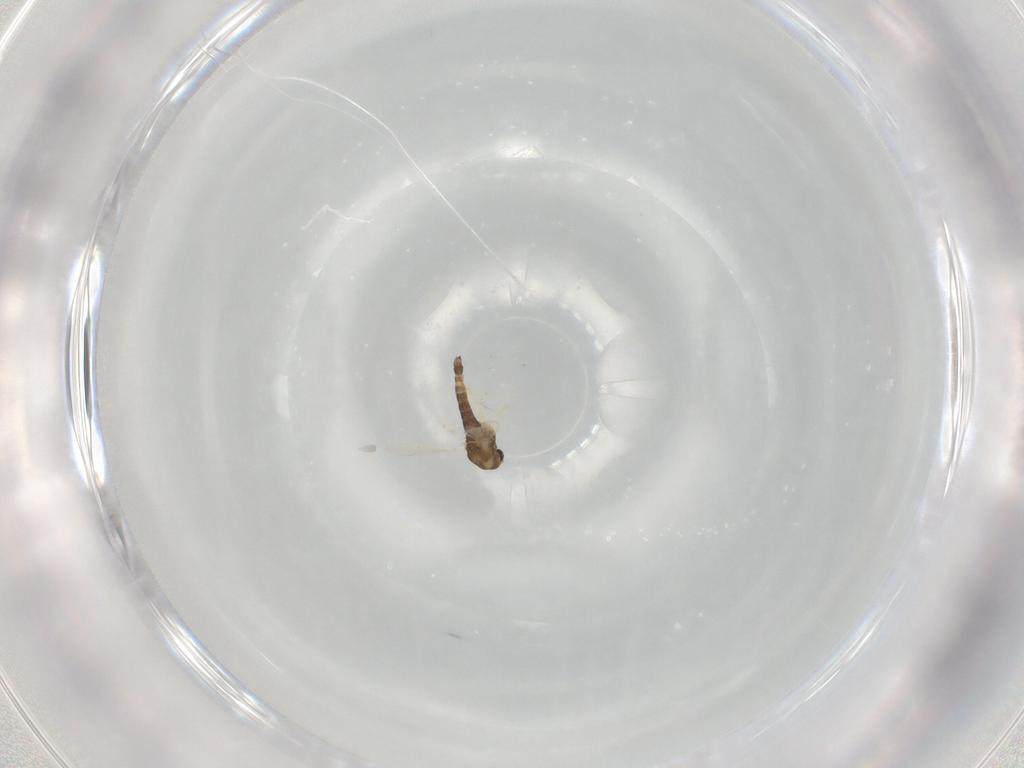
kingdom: Animalia
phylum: Arthropoda
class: Insecta
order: Diptera
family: Chironomidae
